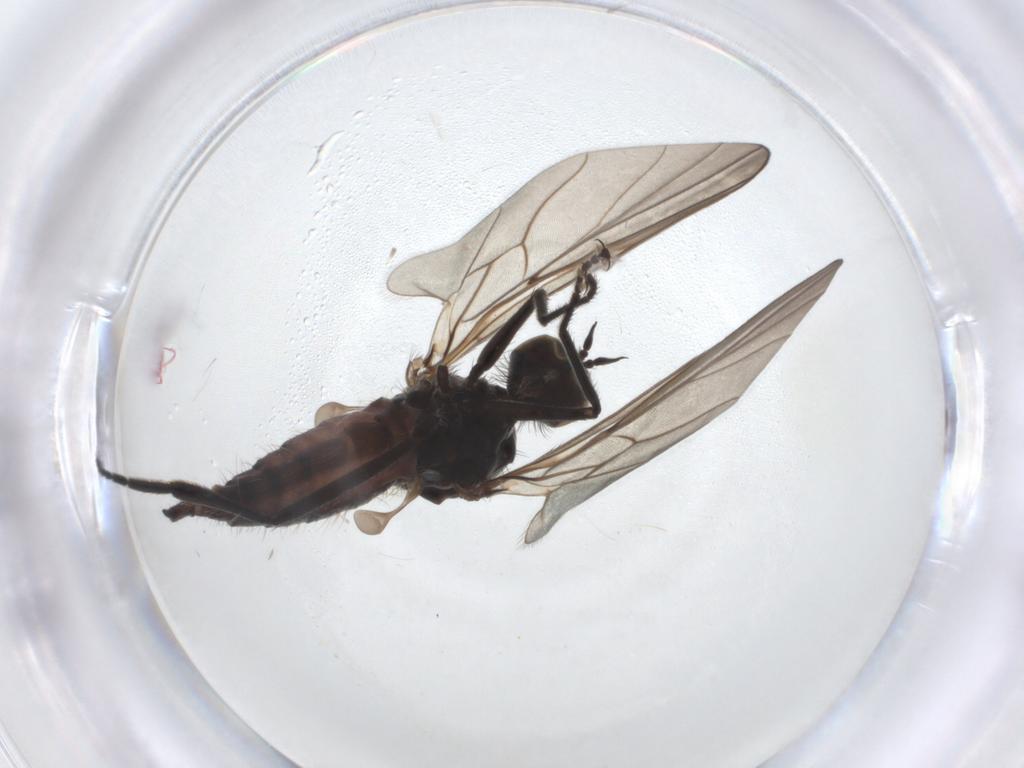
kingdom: Animalia
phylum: Arthropoda
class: Insecta
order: Diptera
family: Hybotidae
